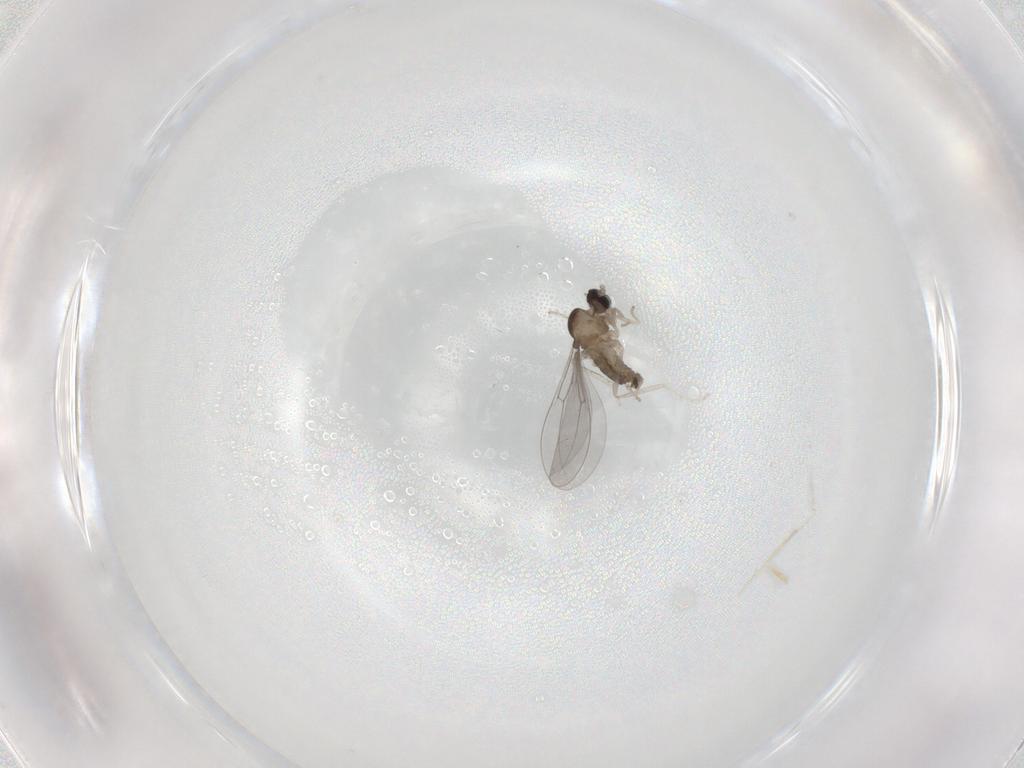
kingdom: Animalia
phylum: Arthropoda
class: Insecta
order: Diptera
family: Cecidomyiidae
